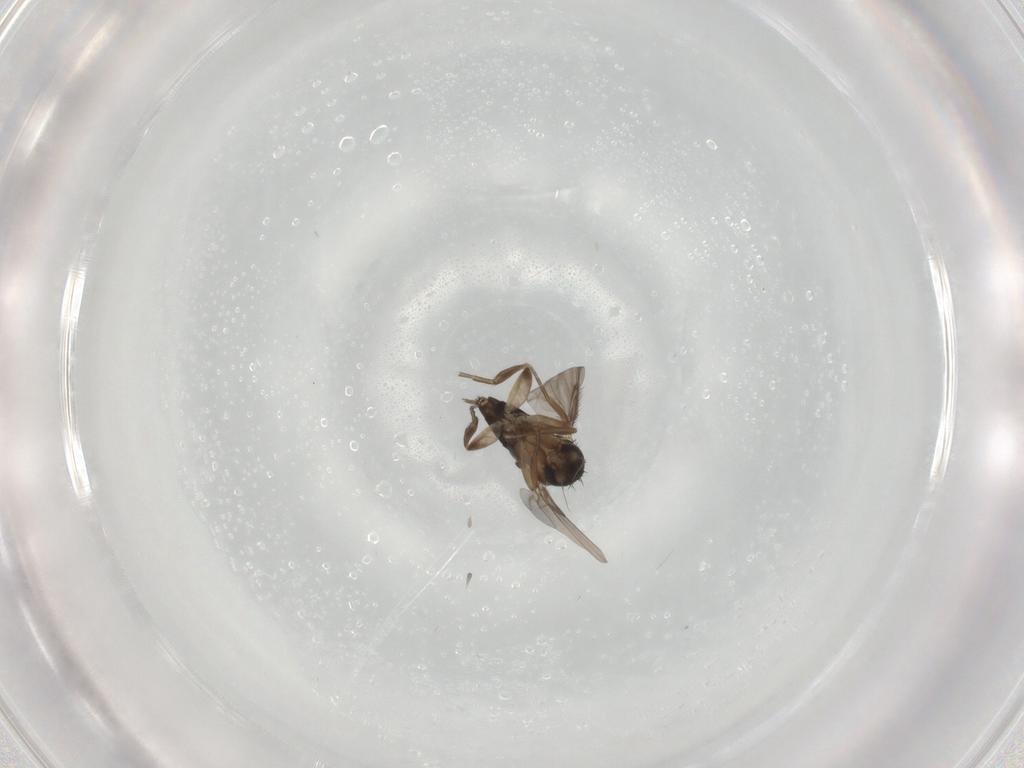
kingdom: Animalia
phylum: Arthropoda
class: Insecta
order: Diptera
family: Phoridae
